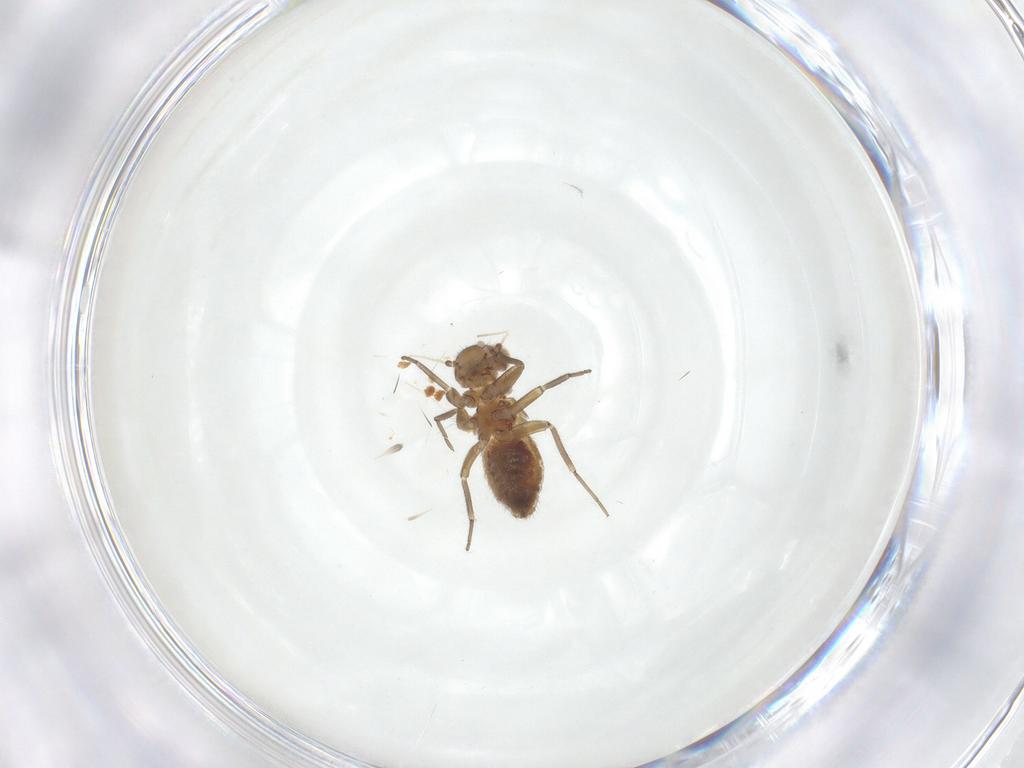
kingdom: Animalia
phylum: Arthropoda
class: Insecta
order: Psocodea
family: Philotarsidae
